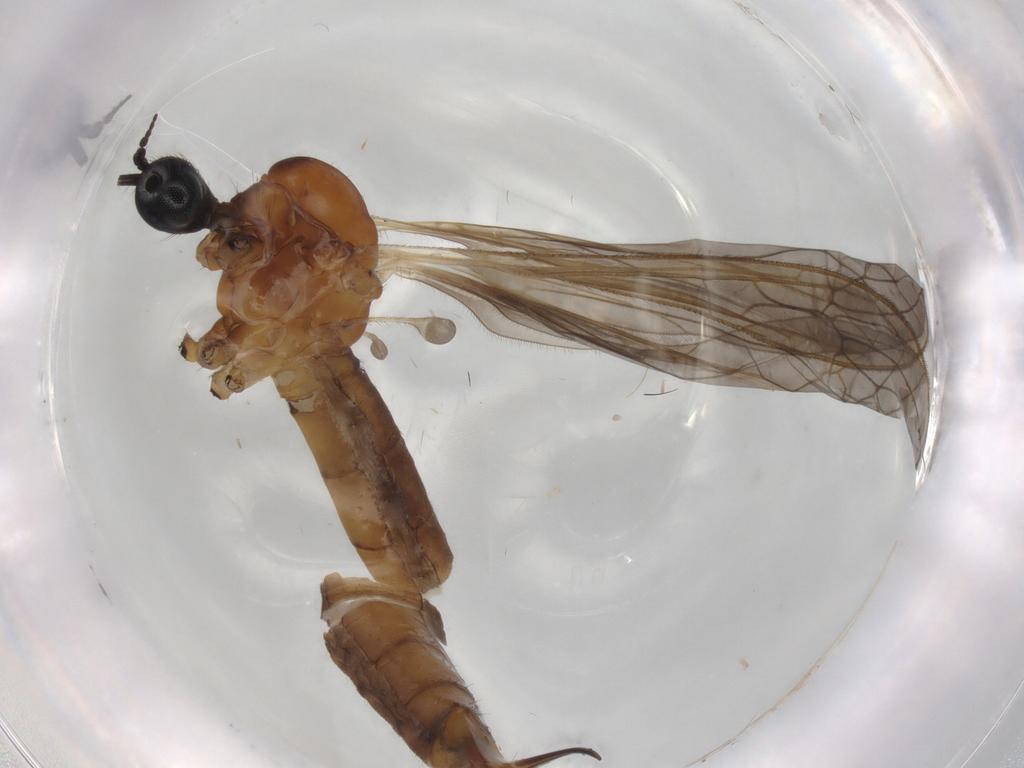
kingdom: Animalia
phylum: Arthropoda
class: Insecta
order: Diptera
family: Limoniidae
